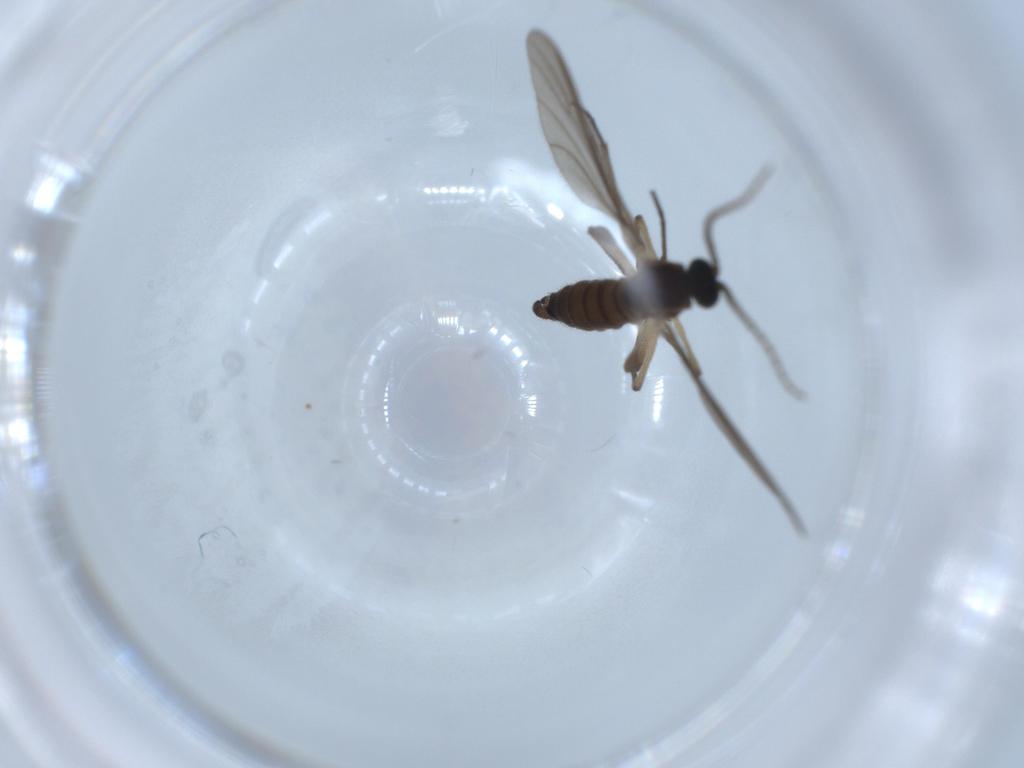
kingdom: Animalia
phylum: Arthropoda
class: Insecta
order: Diptera
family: Sciaridae
